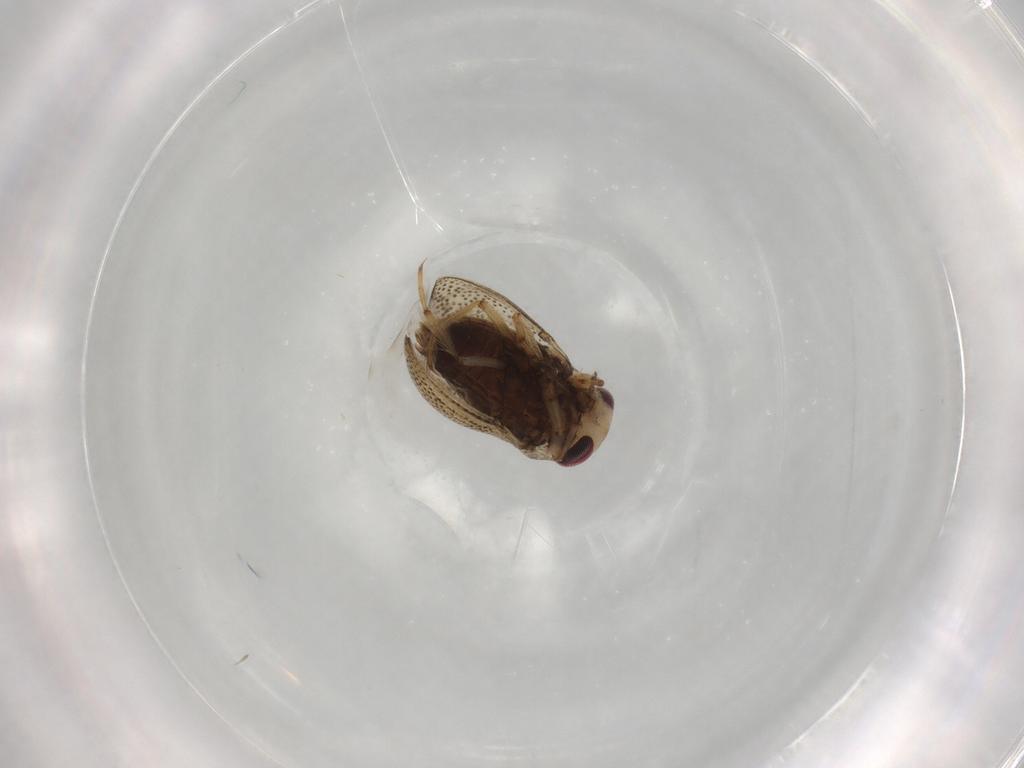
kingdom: Animalia
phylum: Arthropoda
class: Insecta
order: Hemiptera
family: Pleidae
